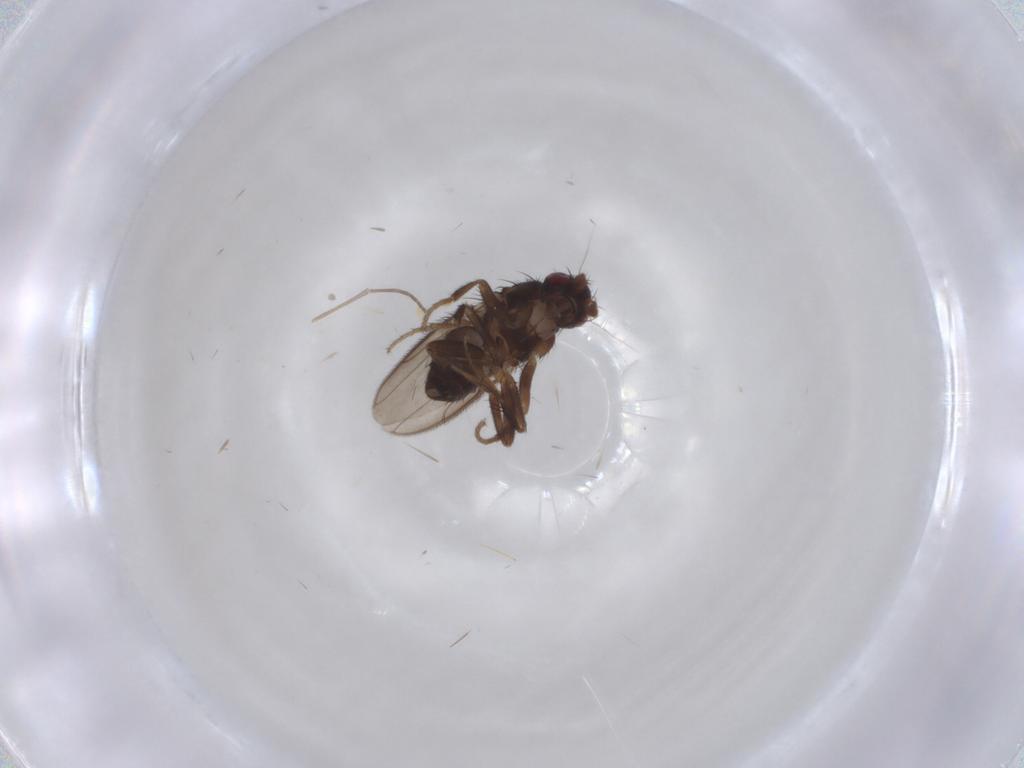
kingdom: Animalia
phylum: Arthropoda
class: Insecta
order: Diptera
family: Sphaeroceridae
